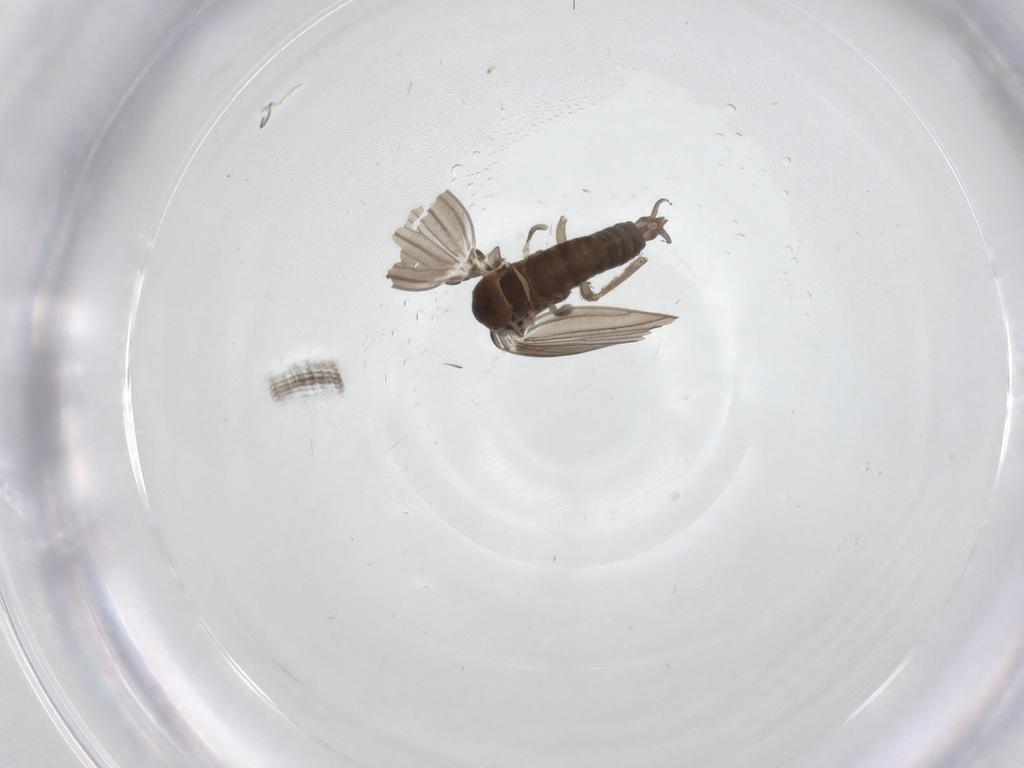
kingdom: Animalia
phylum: Arthropoda
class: Insecta
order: Diptera
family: Psychodidae
